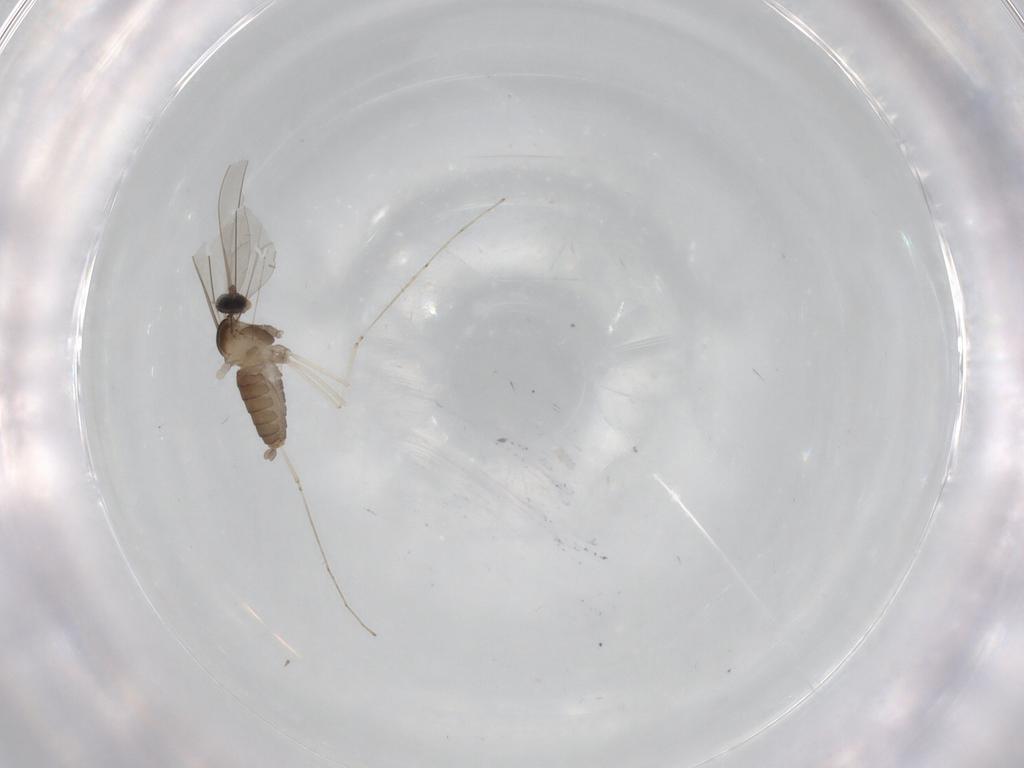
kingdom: Animalia
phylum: Arthropoda
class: Insecta
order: Diptera
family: Cecidomyiidae
